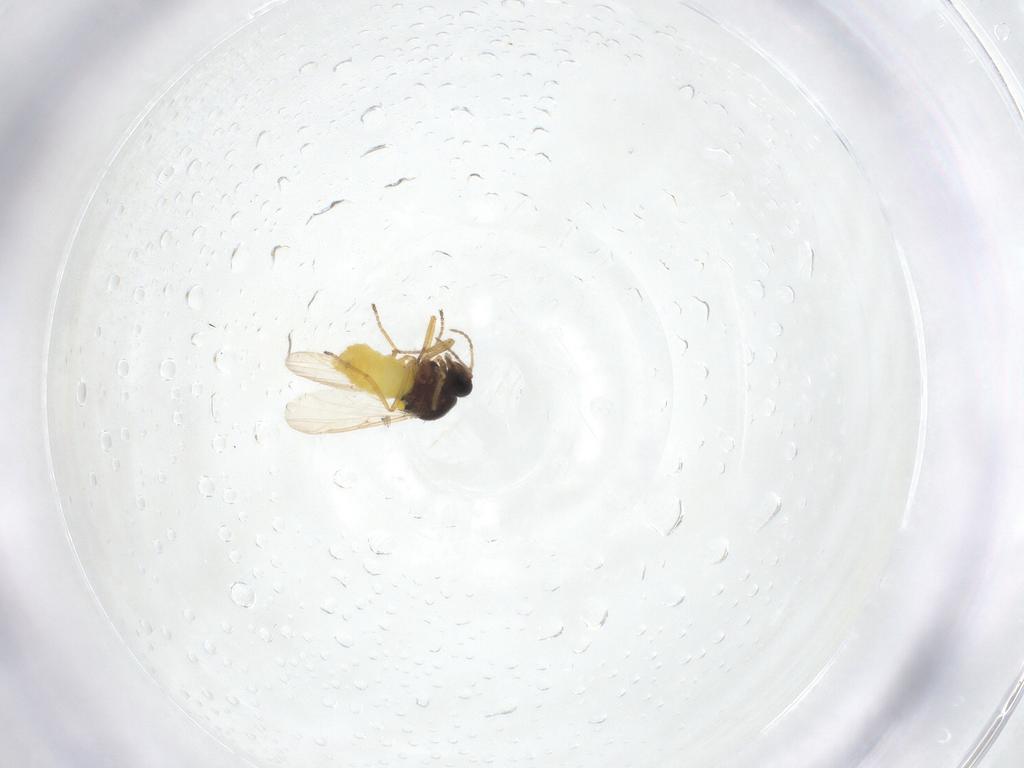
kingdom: Animalia
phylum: Arthropoda
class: Insecta
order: Diptera
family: Ceratopogonidae
